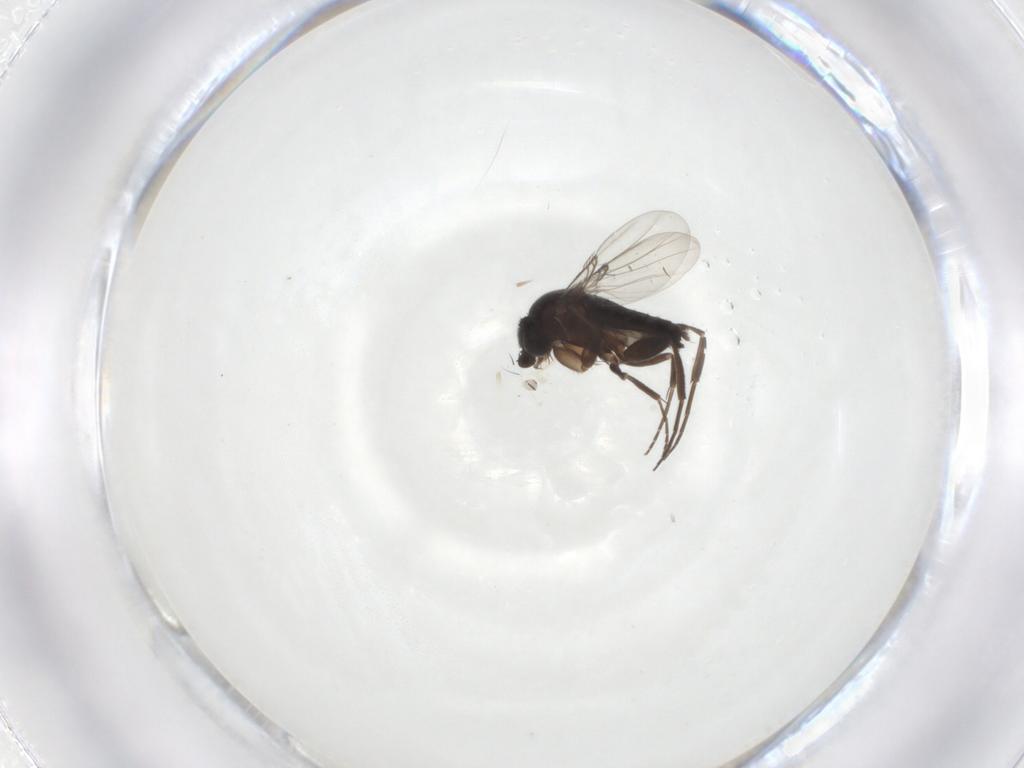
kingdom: Animalia
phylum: Arthropoda
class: Insecta
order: Diptera
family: Phoridae
